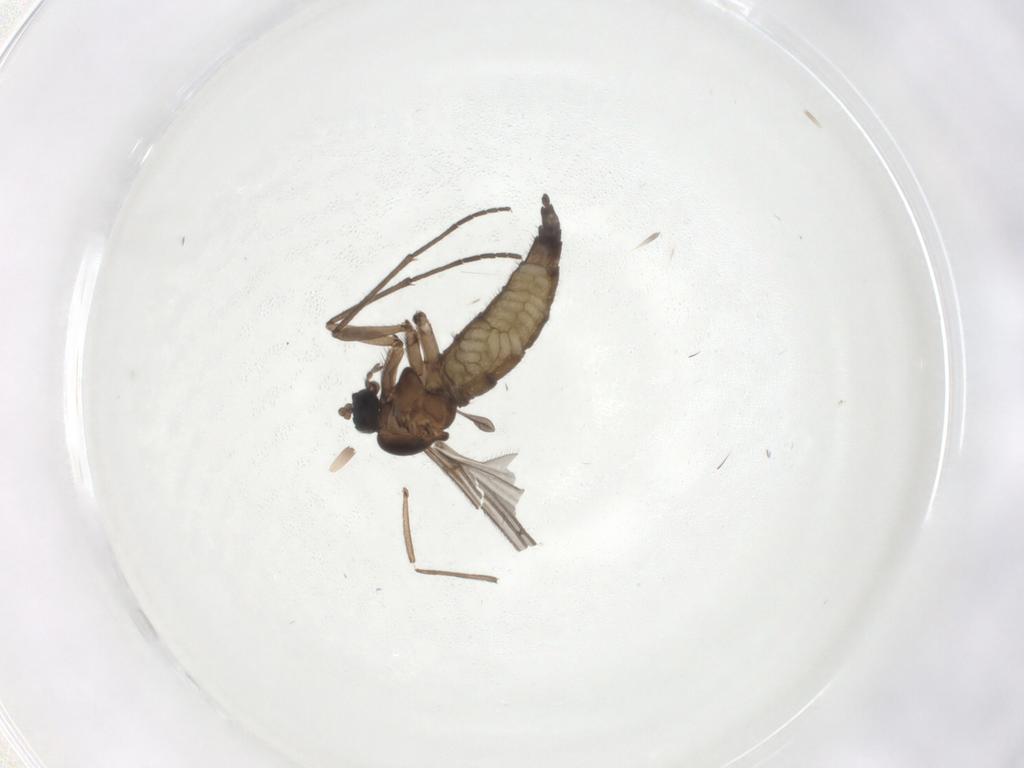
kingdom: Animalia
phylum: Arthropoda
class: Insecta
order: Diptera
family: Sciaridae
